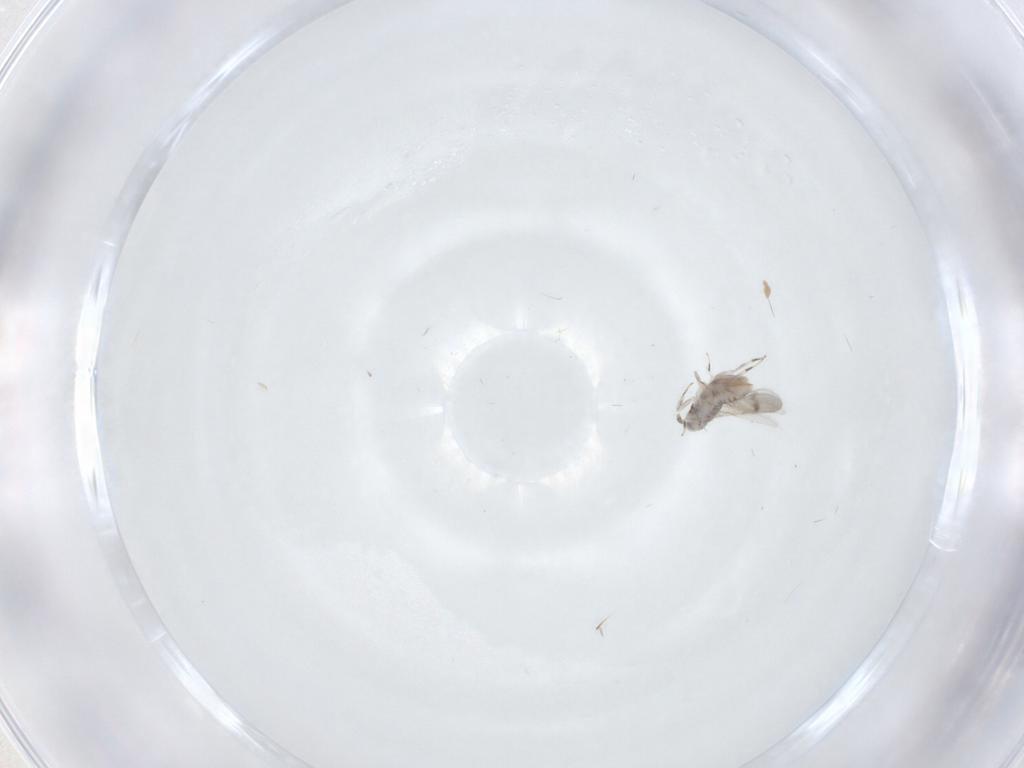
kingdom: Animalia
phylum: Arthropoda
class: Insecta
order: Hymenoptera
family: Aphelinidae
